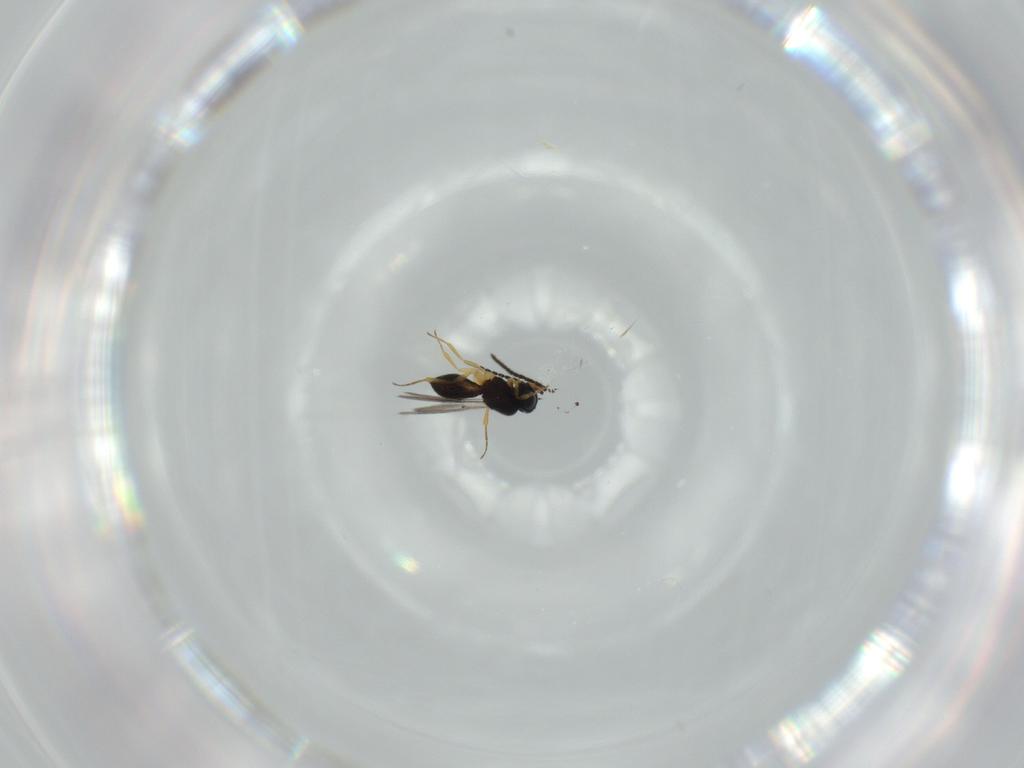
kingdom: Animalia
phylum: Arthropoda
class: Insecta
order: Hymenoptera
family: Scelionidae
